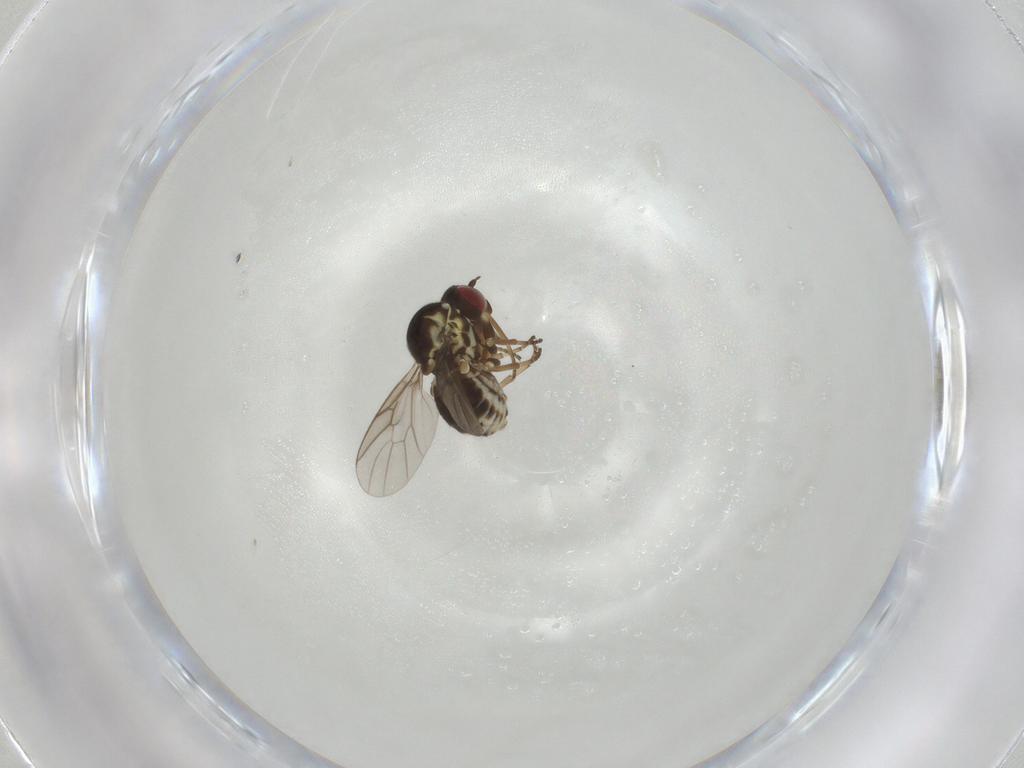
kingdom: Animalia
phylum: Arthropoda
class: Insecta
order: Diptera
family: Bombyliidae
